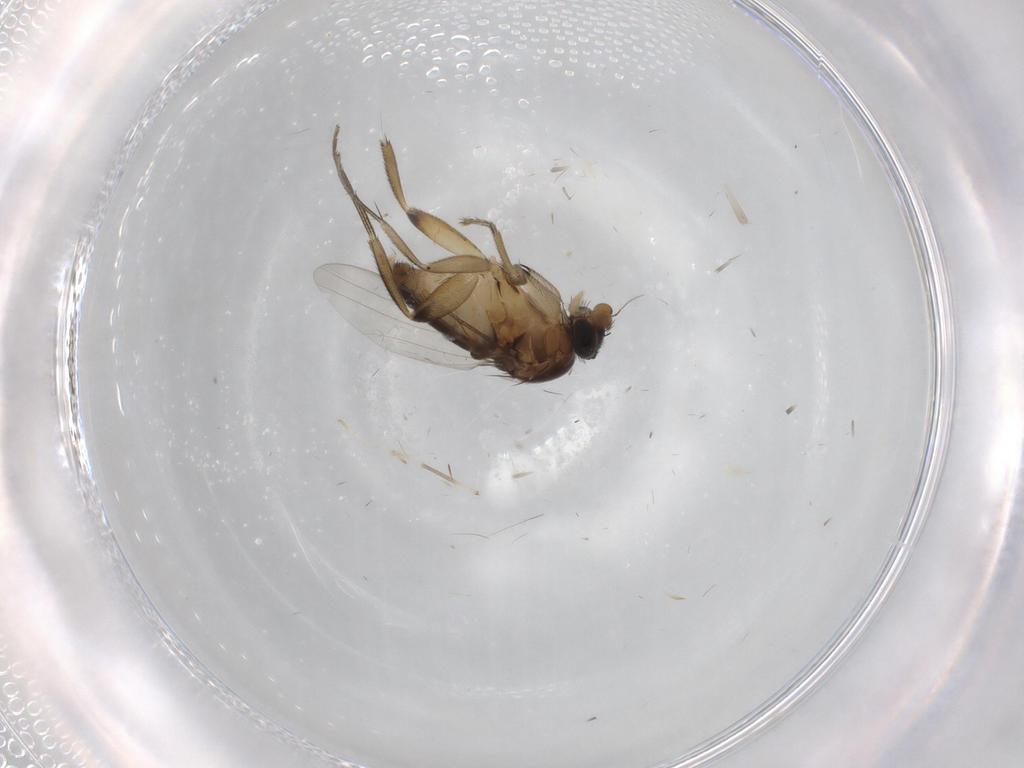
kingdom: Animalia
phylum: Arthropoda
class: Insecta
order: Diptera
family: Phoridae
